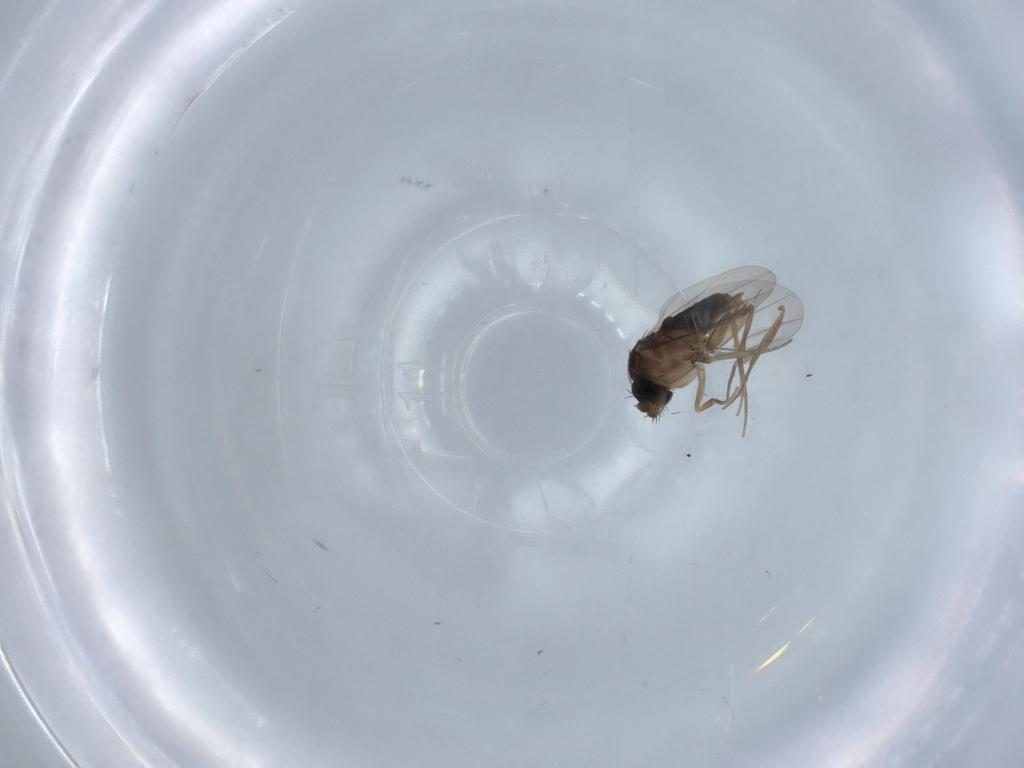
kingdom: Animalia
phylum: Arthropoda
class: Insecta
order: Diptera
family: Phoridae
